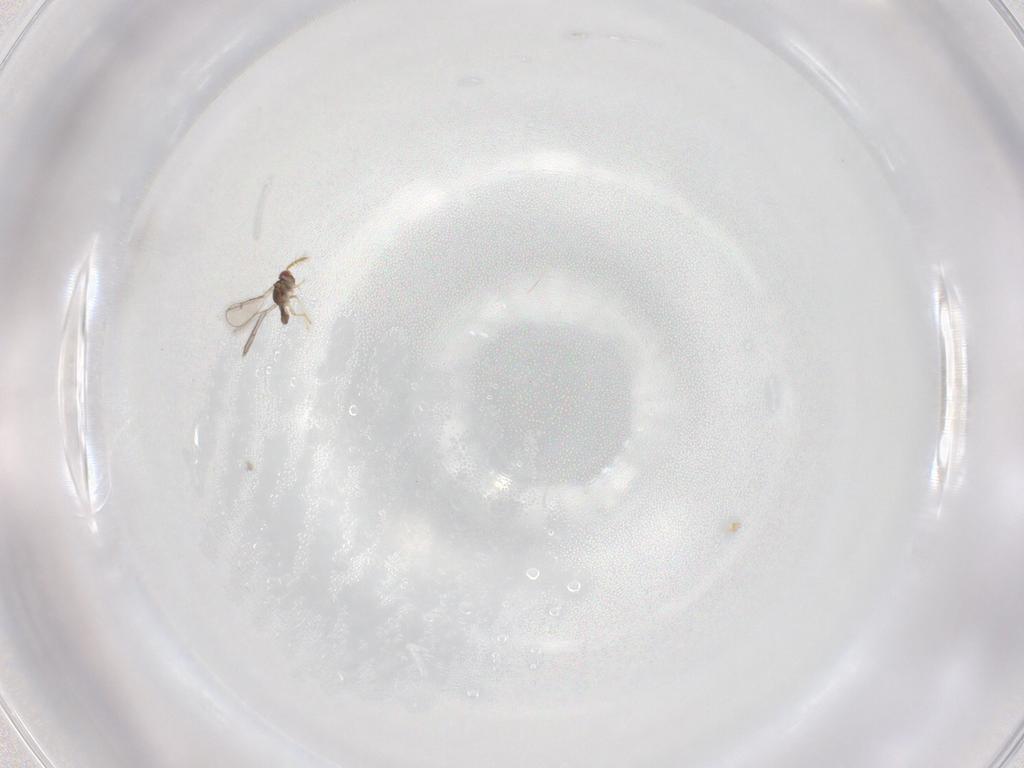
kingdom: Animalia
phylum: Arthropoda
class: Insecta
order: Hymenoptera
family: Eulophidae
